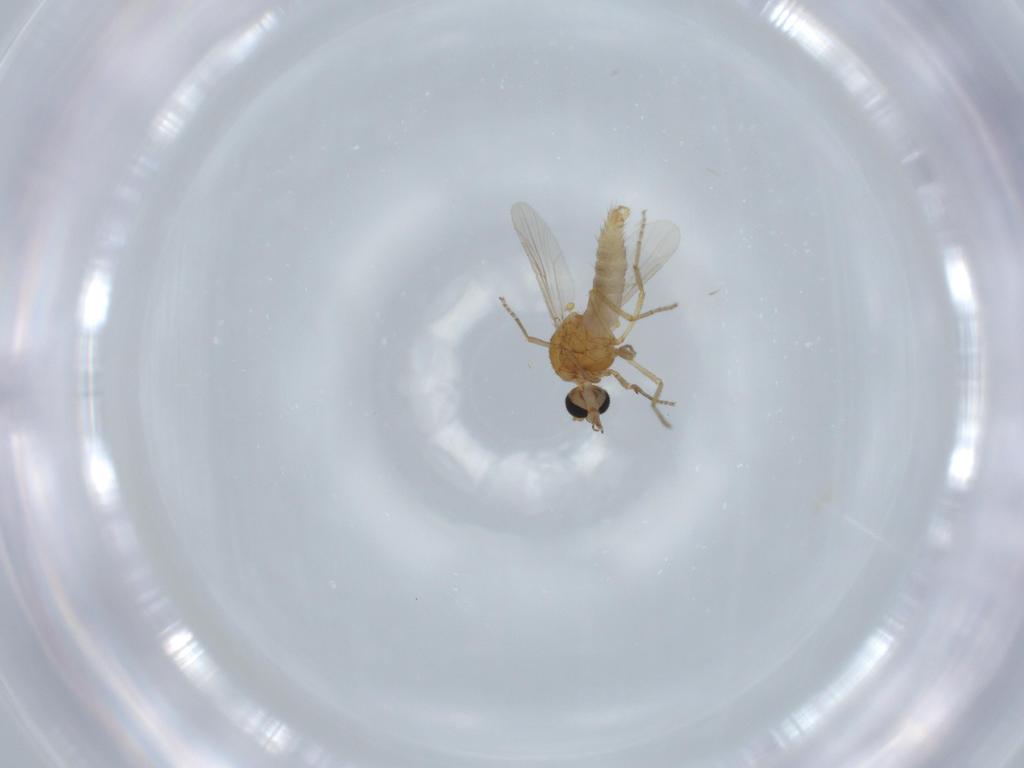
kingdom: Animalia
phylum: Arthropoda
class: Insecta
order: Diptera
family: Ceratopogonidae
